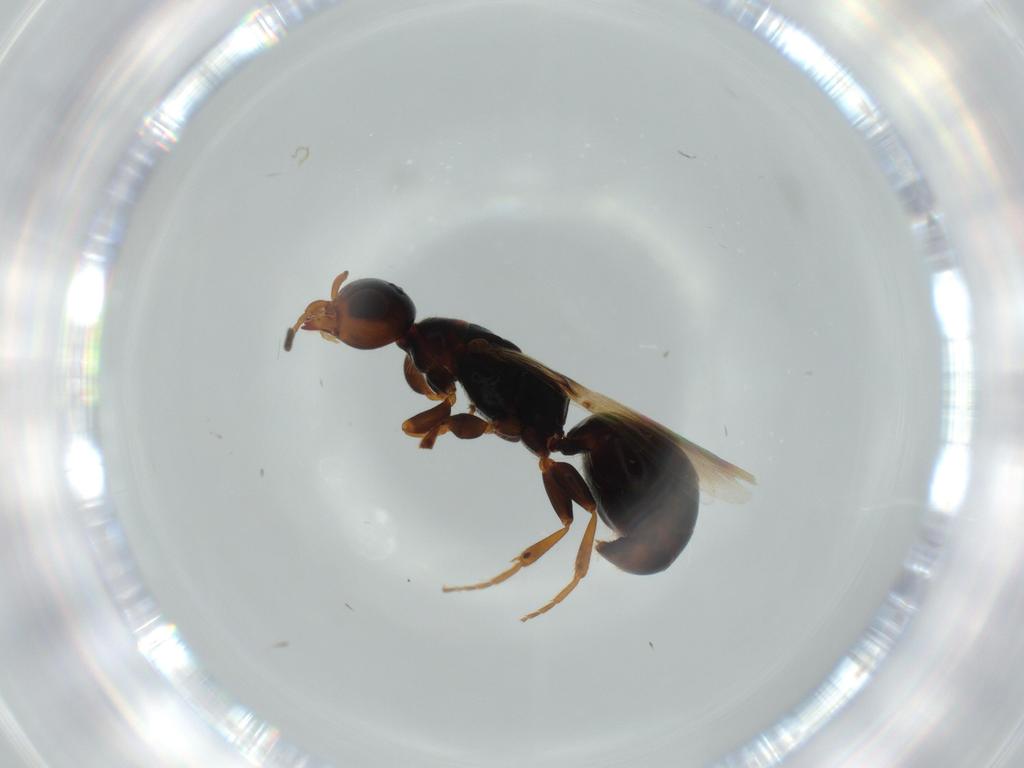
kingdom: Animalia
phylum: Arthropoda
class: Insecta
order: Hymenoptera
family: Bethylidae
